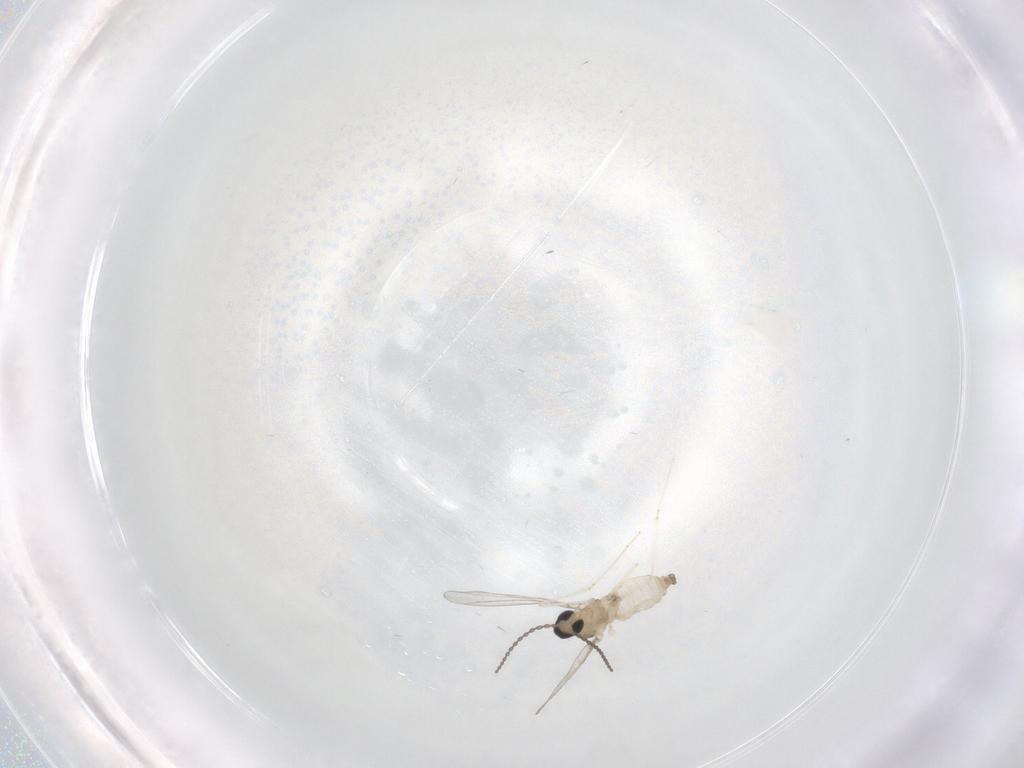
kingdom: Animalia
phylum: Arthropoda
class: Insecta
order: Diptera
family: Cecidomyiidae
